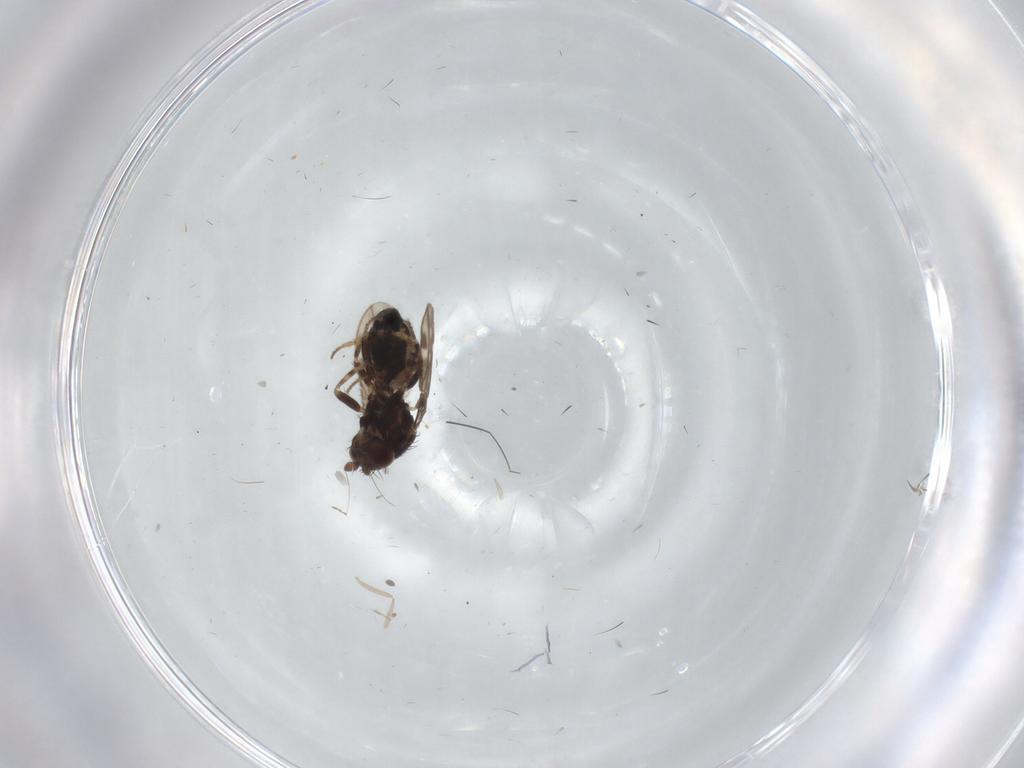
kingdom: Animalia
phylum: Arthropoda
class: Insecta
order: Diptera
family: Sphaeroceridae
